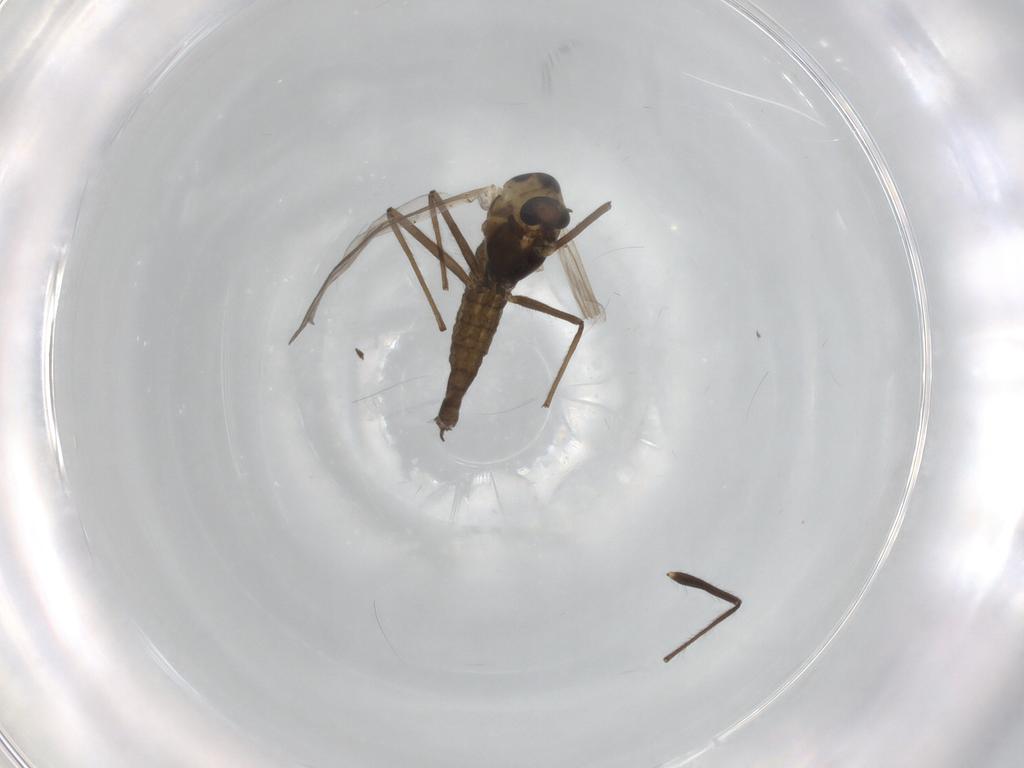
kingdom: Animalia
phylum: Arthropoda
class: Insecta
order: Diptera
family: Chironomidae
